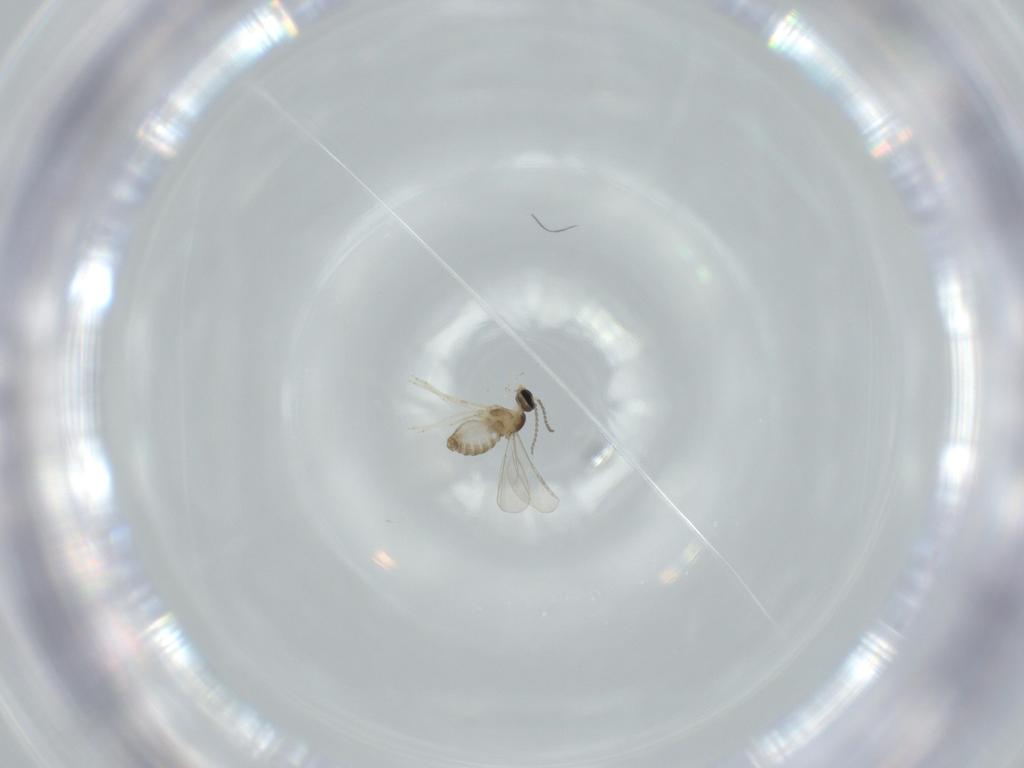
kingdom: Animalia
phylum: Arthropoda
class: Insecta
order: Diptera
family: Cecidomyiidae
